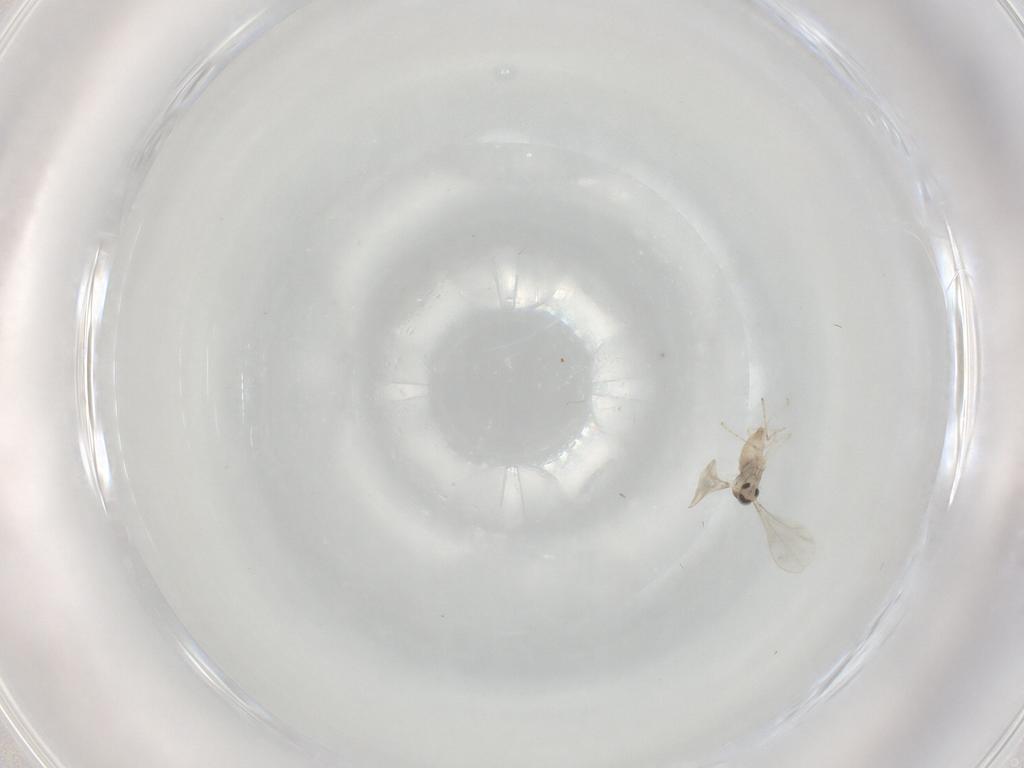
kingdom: Animalia
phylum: Arthropoda
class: Insecta
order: Diptera
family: Cecidomyiidae
